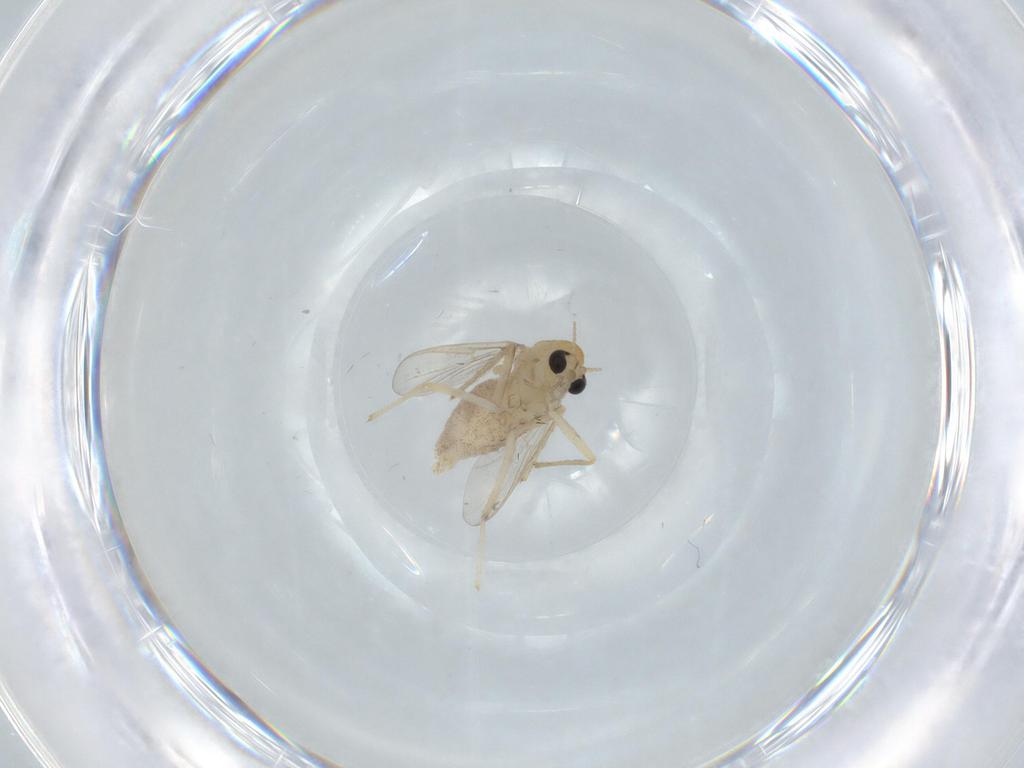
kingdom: Animalia
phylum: Arthropoda
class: Insecta
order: Diptera
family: Chironomidae
